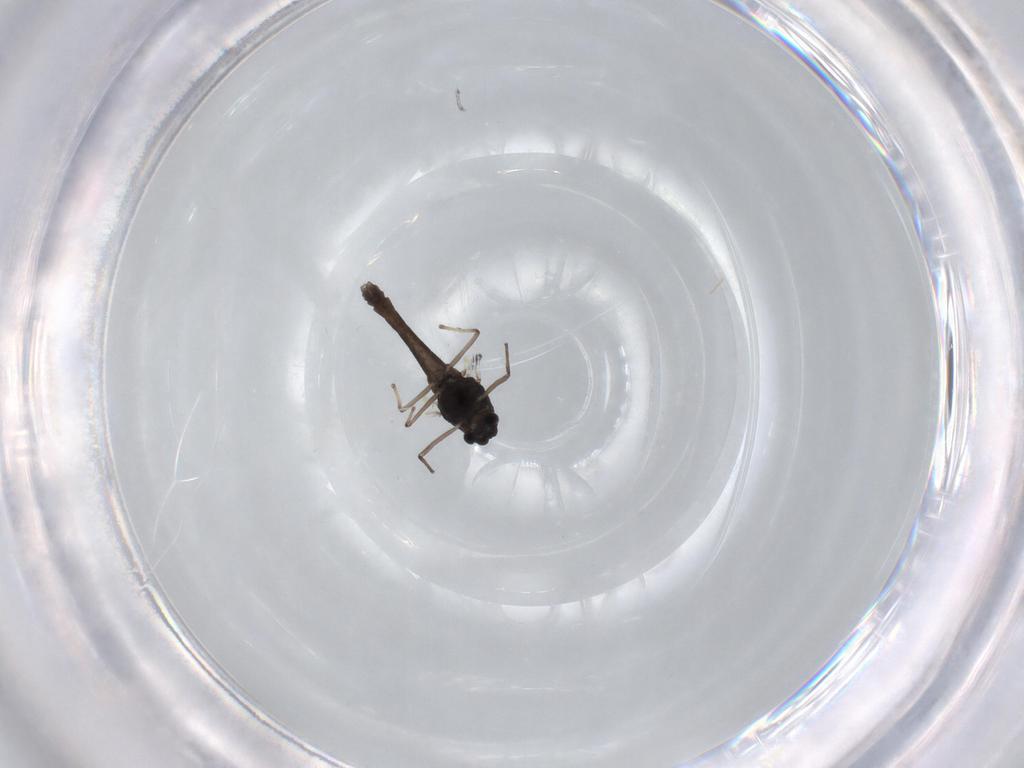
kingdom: Animalia
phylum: Arthropoda
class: Insecta
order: Diptera
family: Chironomidae
